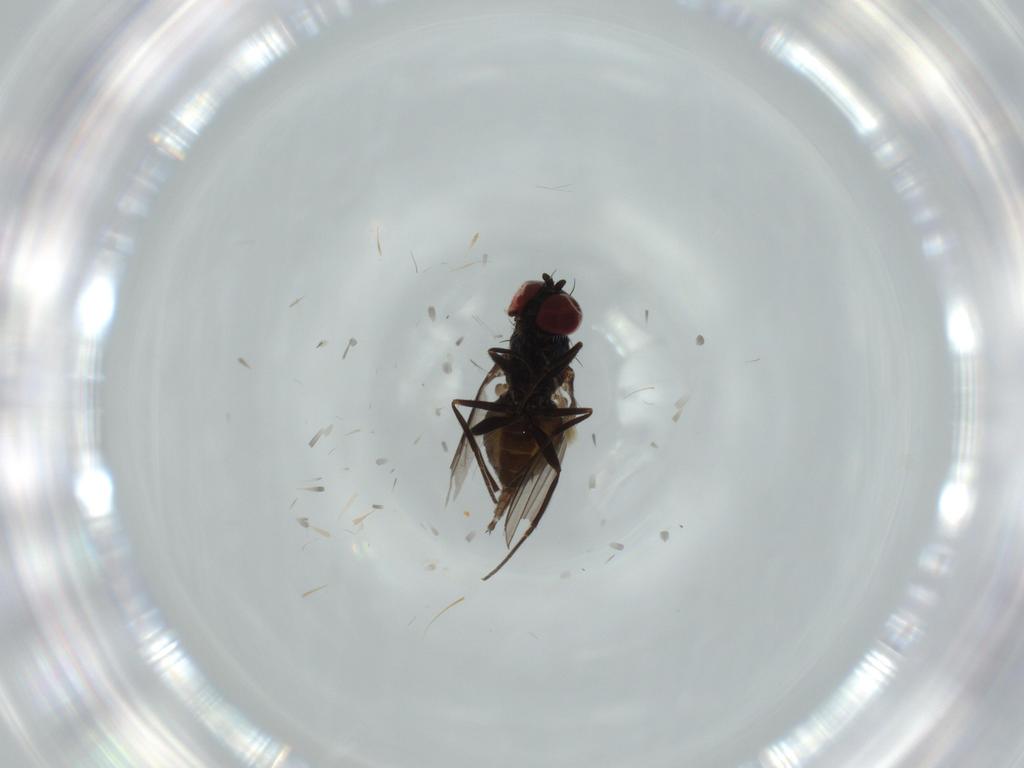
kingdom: Animalia
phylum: Arthropoda
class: Insecta
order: Diptera
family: Dolichopodidae
